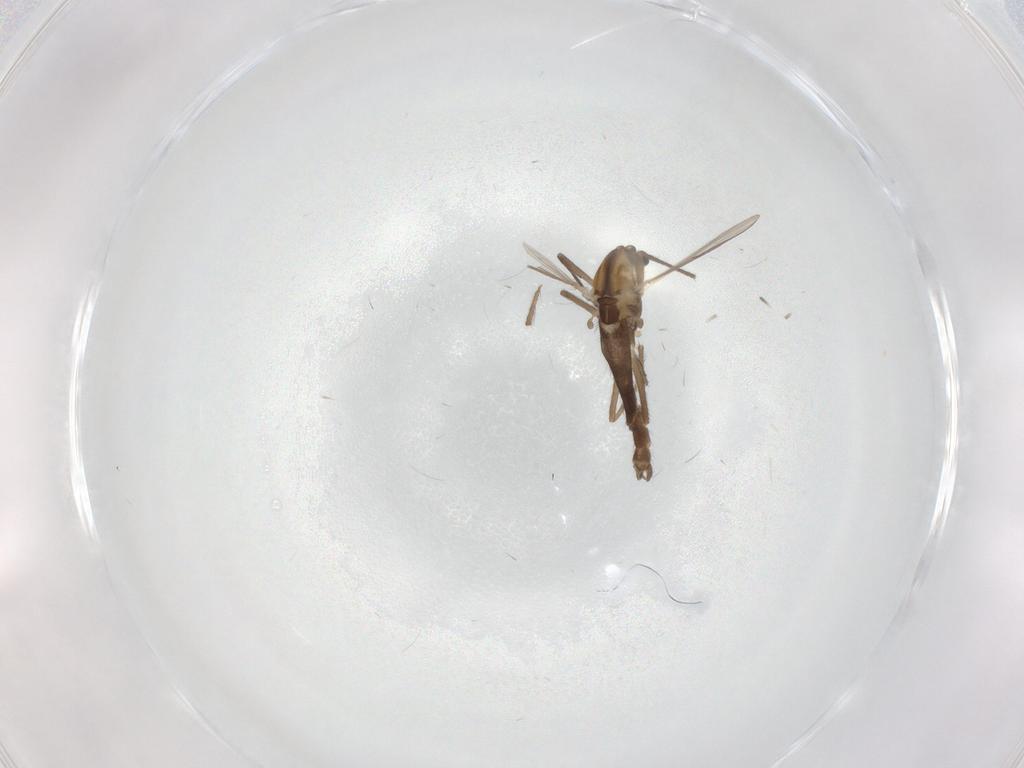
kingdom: Animalia
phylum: Arthropoda
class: Insecta
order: Diptera
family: Chironomidae
